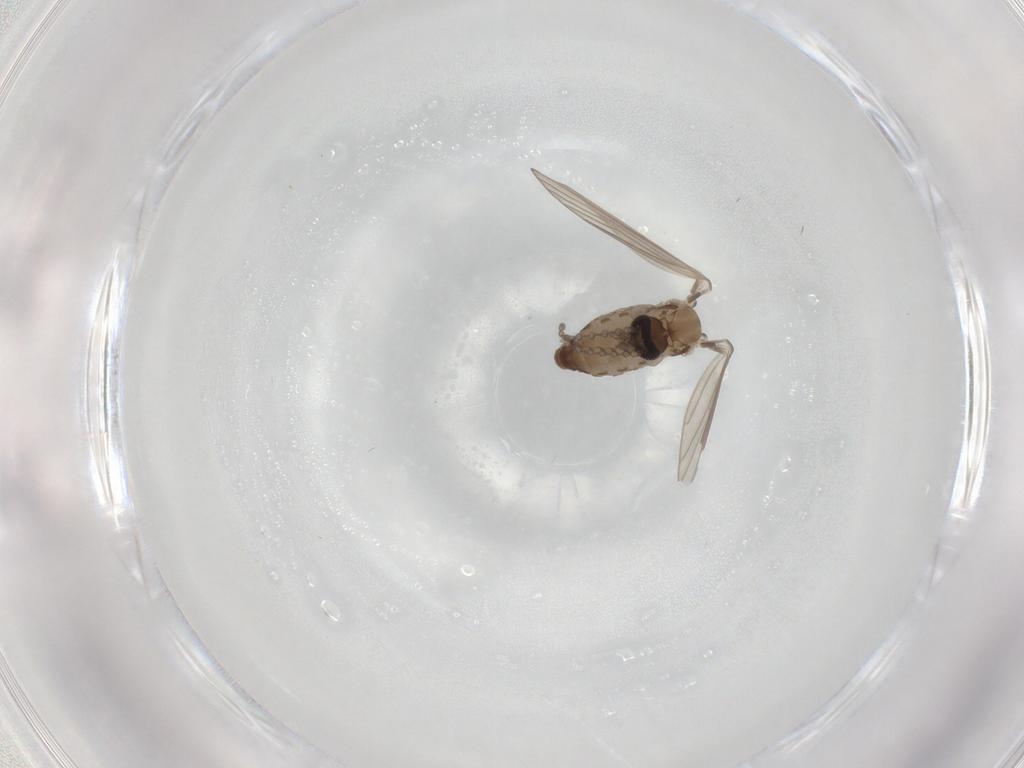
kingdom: Animalia
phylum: Arthropoda
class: Insecta
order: Diptera
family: Psychodidae
